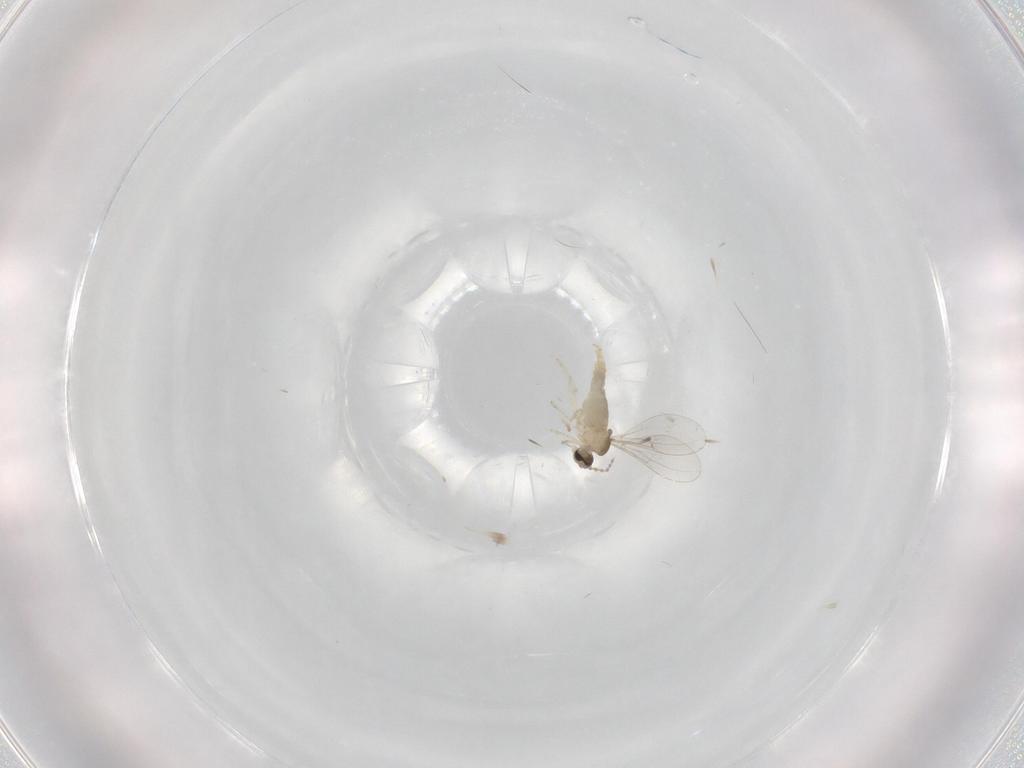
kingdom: Animalia
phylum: Arthropoda
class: Insecta
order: Diptera
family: Cecidomyiidae
